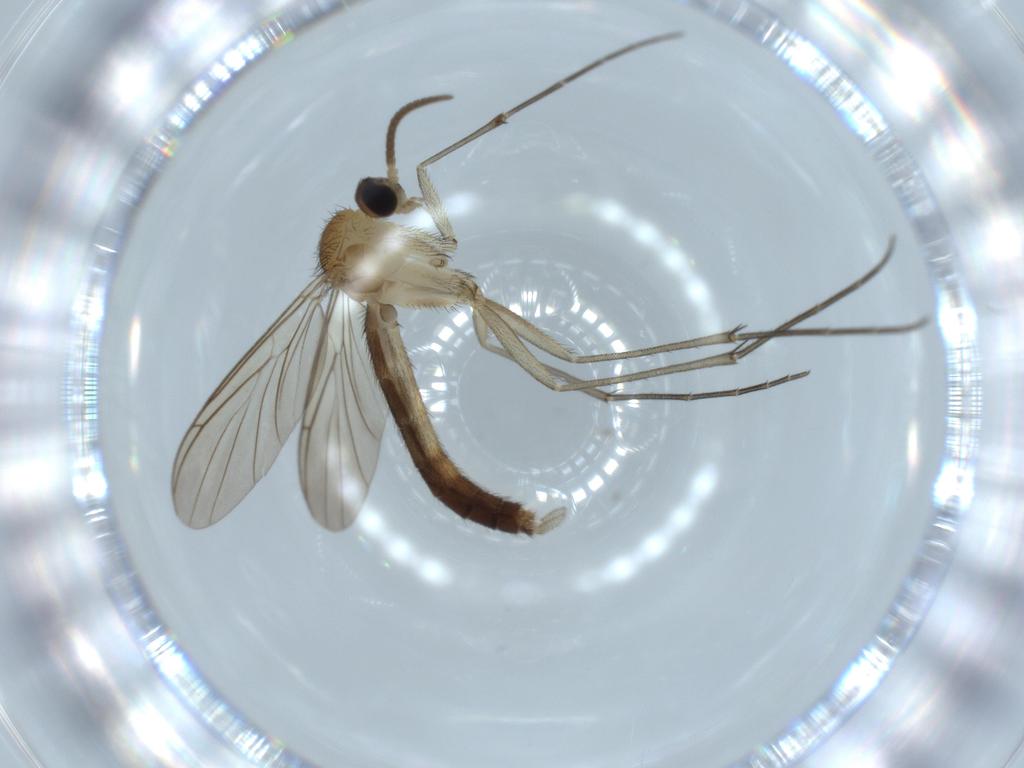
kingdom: Animalia
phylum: Arthropoda
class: Insecta
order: Diptera
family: Keroplatidae
